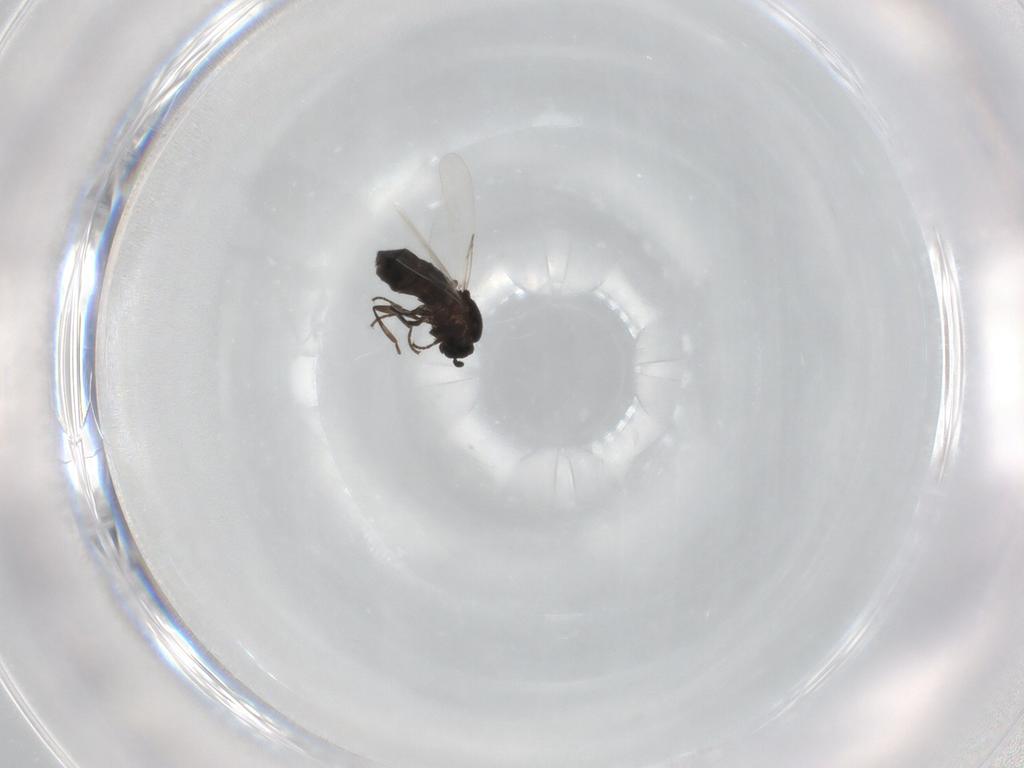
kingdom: Animalia
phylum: Arthropoda
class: Insecta
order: Diptera
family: Scatopsidae
